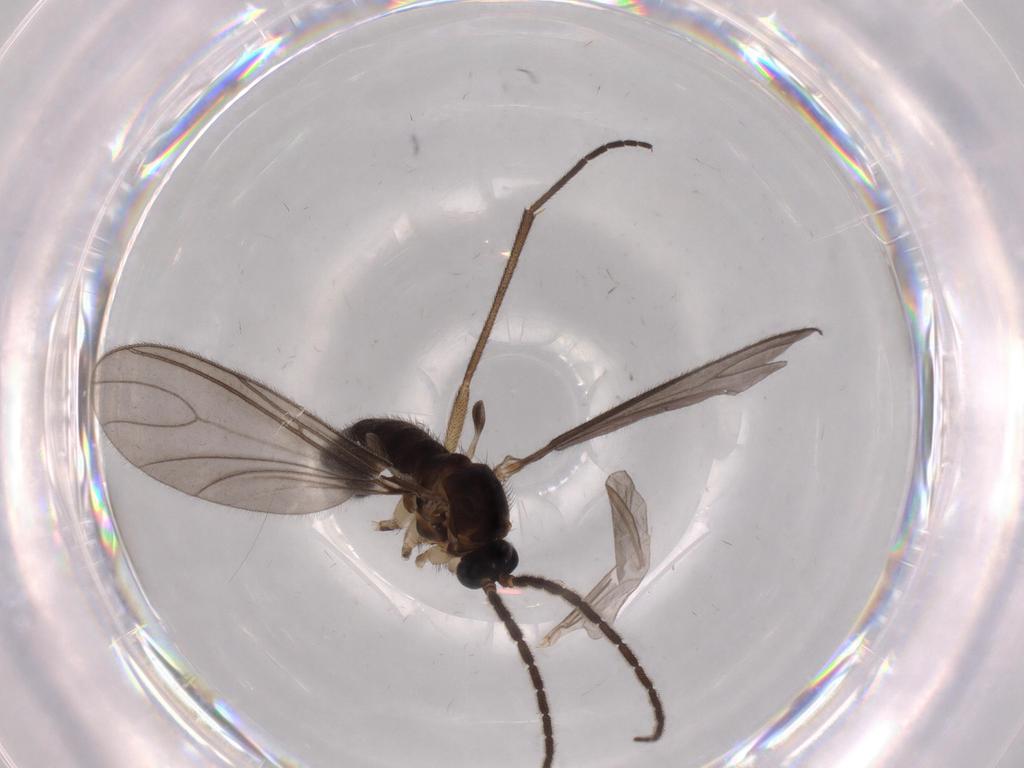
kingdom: Animalia
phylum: Arthropoda
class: Insecta
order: Diptera
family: Sciaridae
